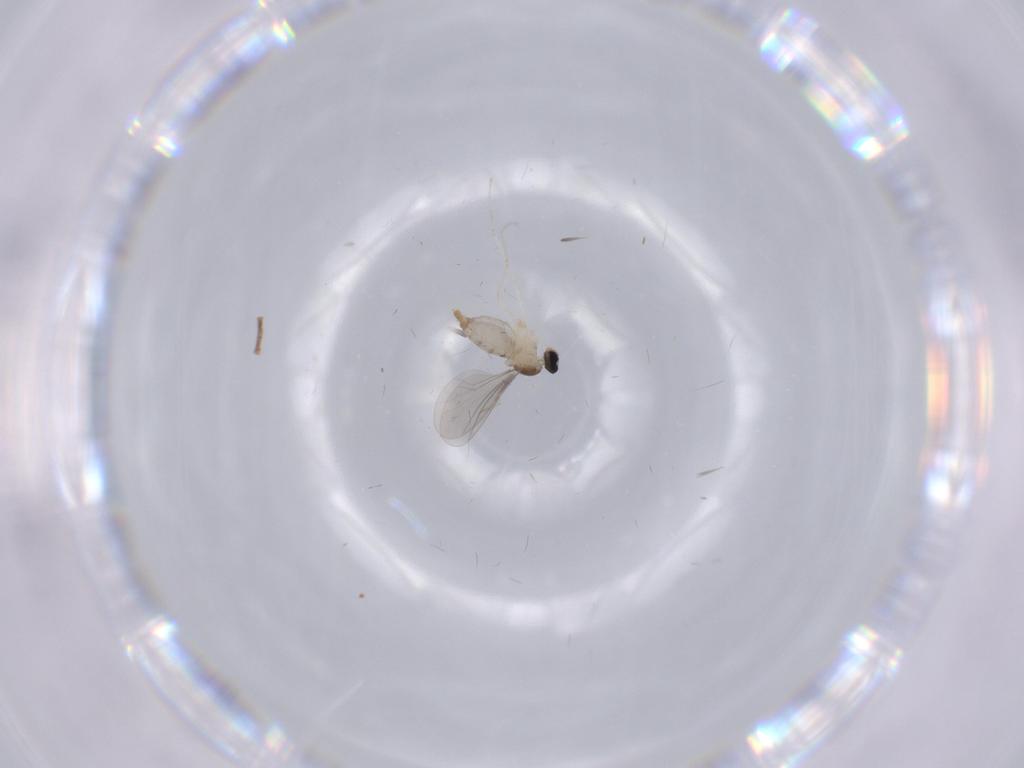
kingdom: Animalia
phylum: Arthropoda
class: Insecta
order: Diptera
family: Cecidomyiidae
